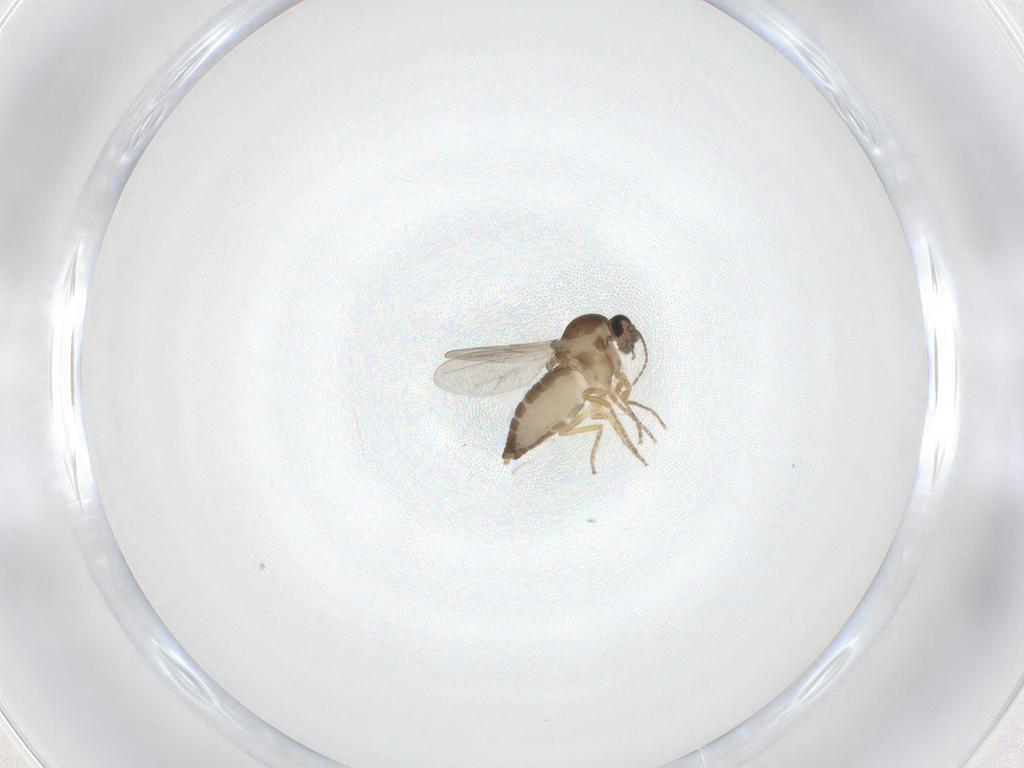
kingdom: Animalia
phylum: Arthropoda
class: Insecta
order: Diptera
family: Ceratopogonidae
